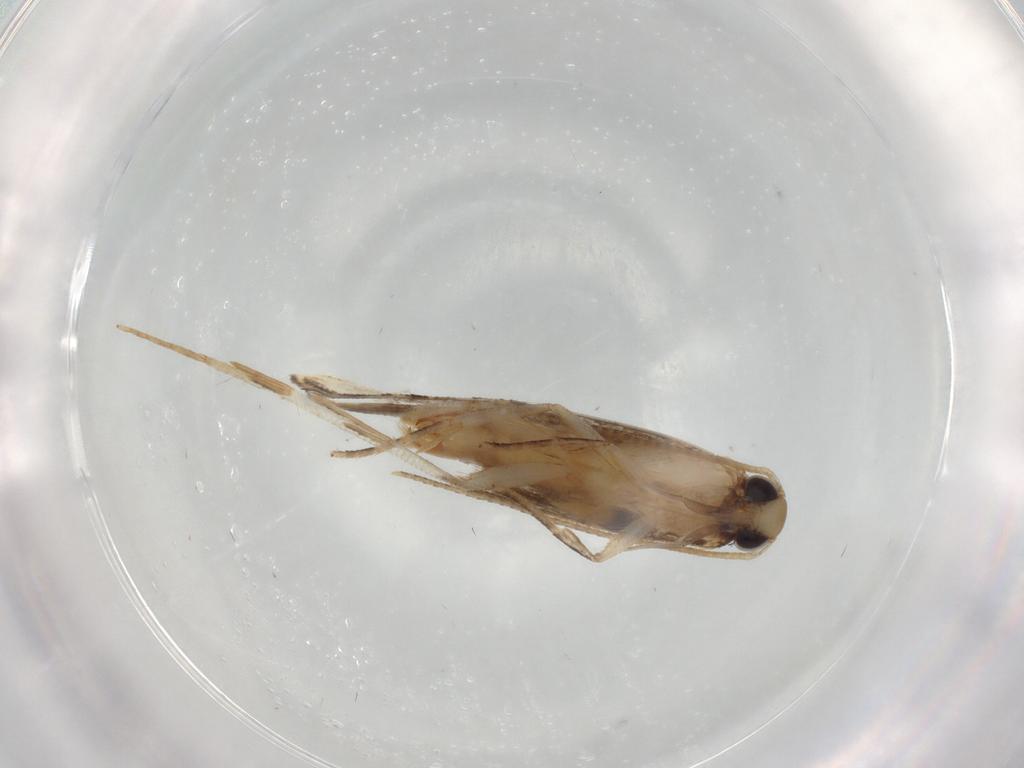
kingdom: Animalia
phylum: Arthropoda
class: Insecta
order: Lepidoptera
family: Gelechiidae
